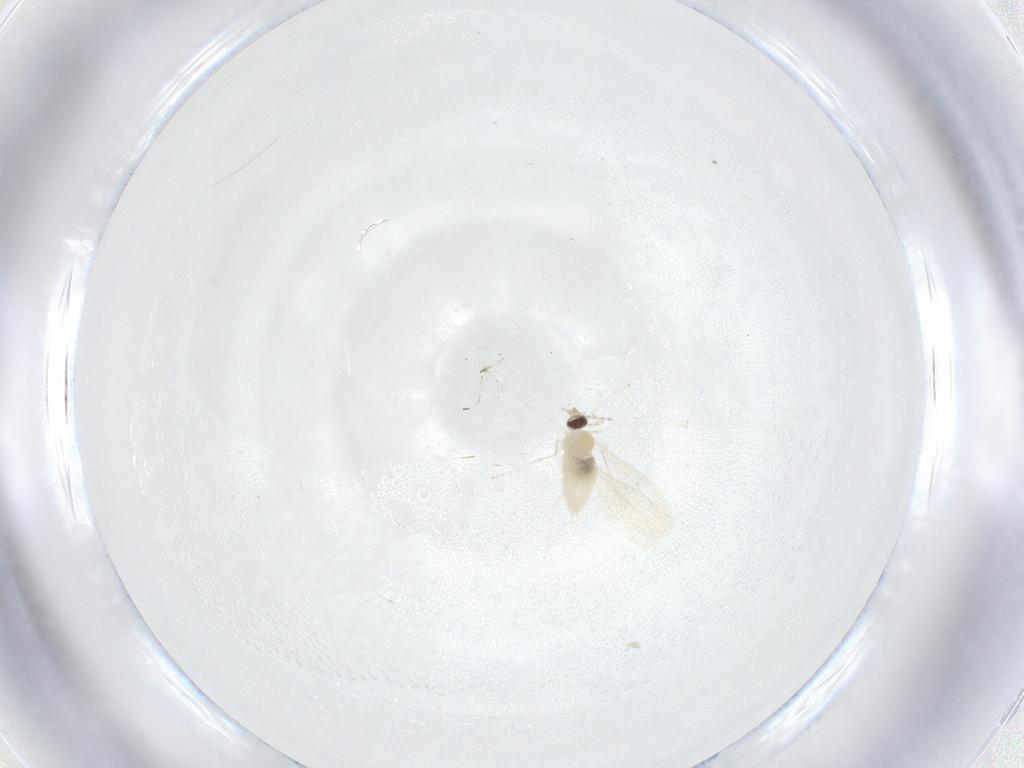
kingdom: Animalia
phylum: Arthropoda
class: Insecta
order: Diptera
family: Cecidomyiidae
